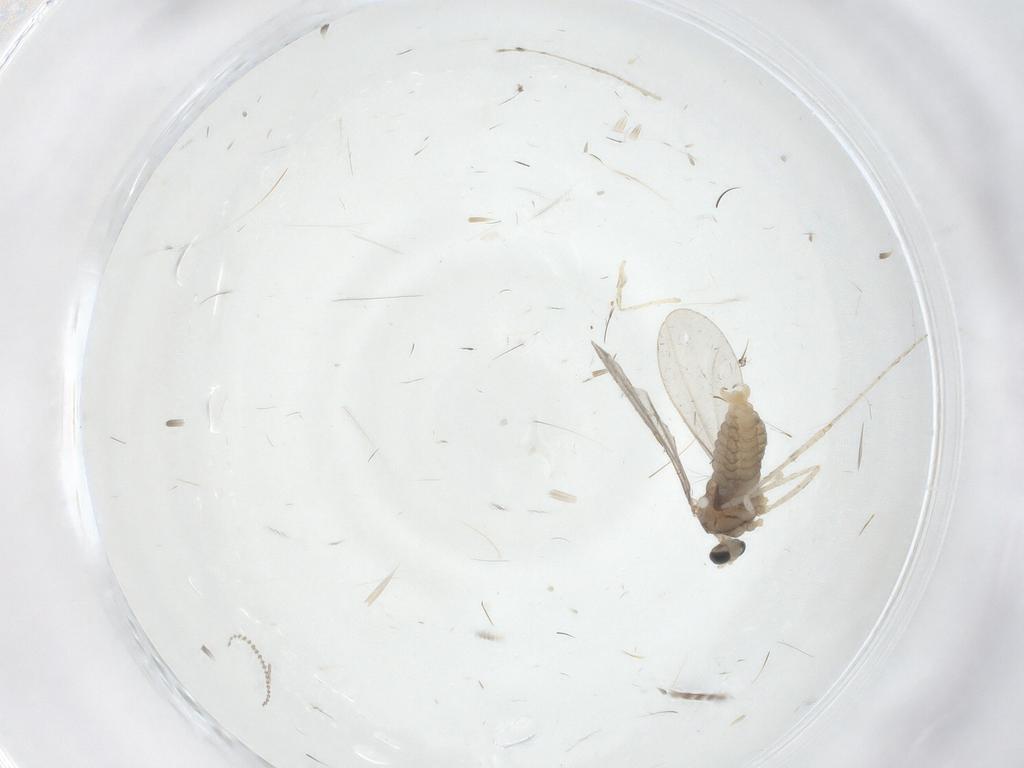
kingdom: Animalia
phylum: Arthropoda
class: Insecta
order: Diptera
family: Cecidomyiidae
